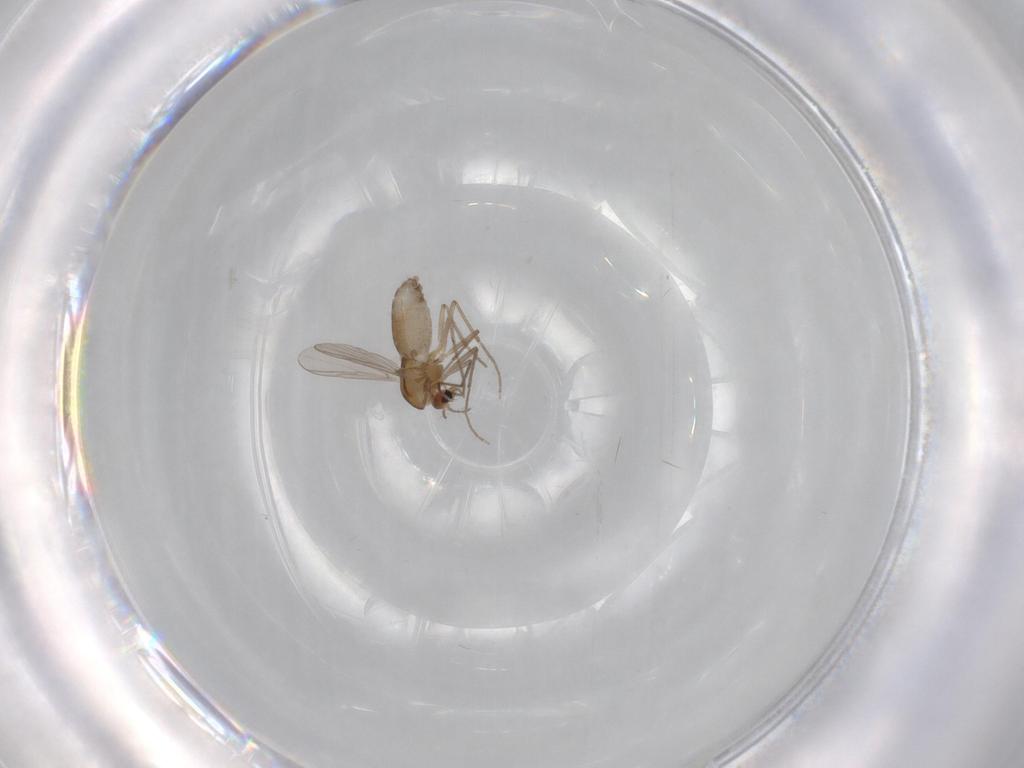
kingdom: Animalia
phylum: Arthropoda
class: Insecta
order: Diptera
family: Chironomidae
